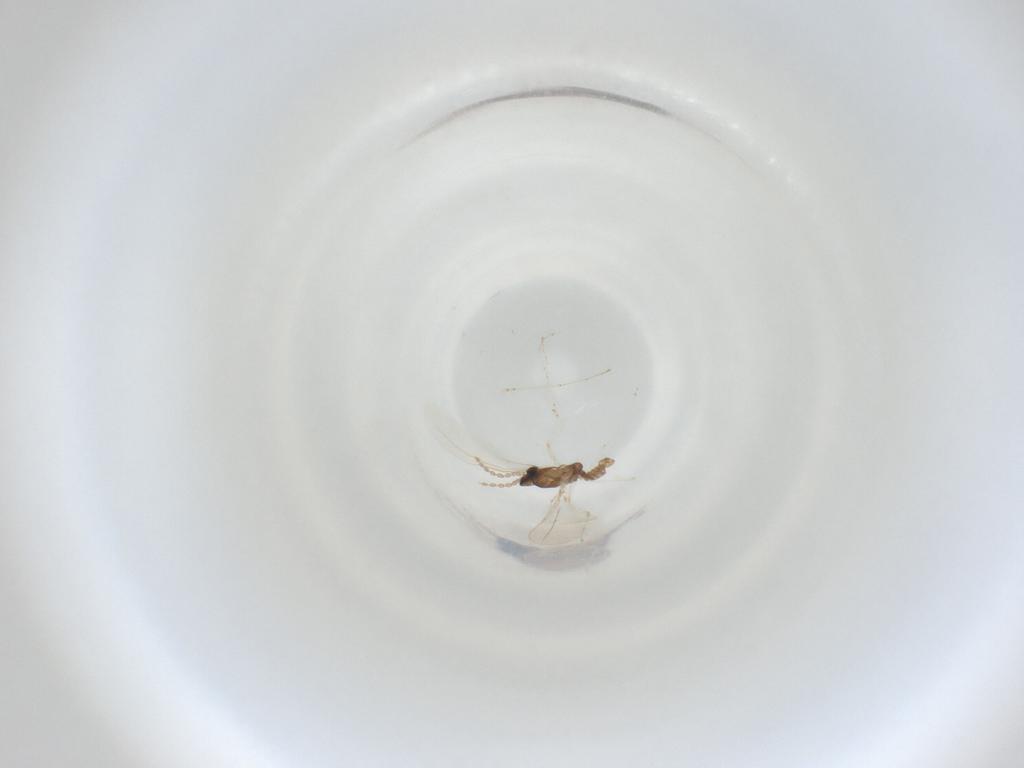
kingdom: Animalia
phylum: Arthropoda
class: Insecta
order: Diptera
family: Cecidomyiidae
